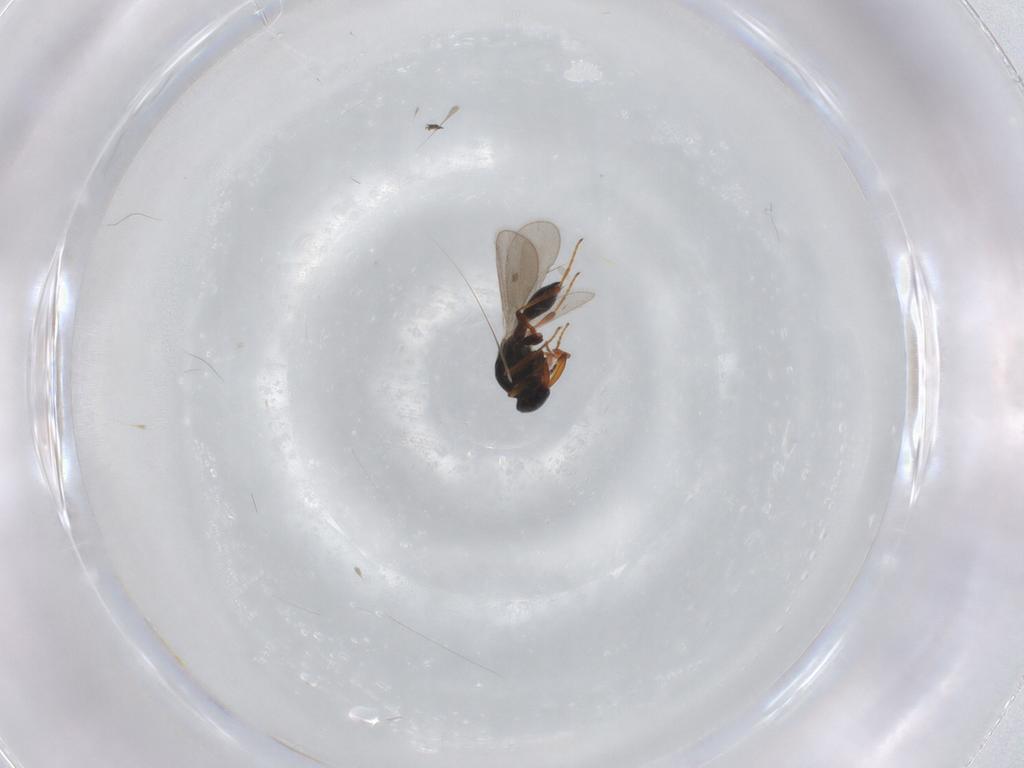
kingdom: Animalia
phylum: Arthropoda
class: Insecta
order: Hymenoptera
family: Platygastridae
